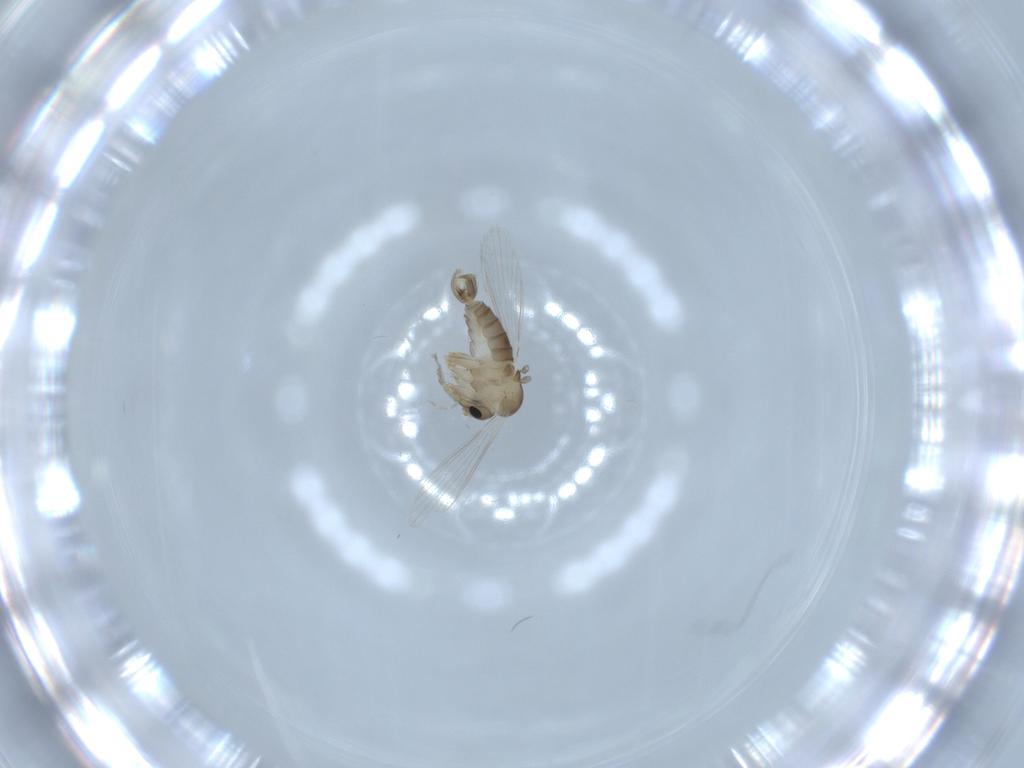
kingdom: Animalia
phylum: Arthropoda
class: Insecta
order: Diptera
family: Psychodidae
